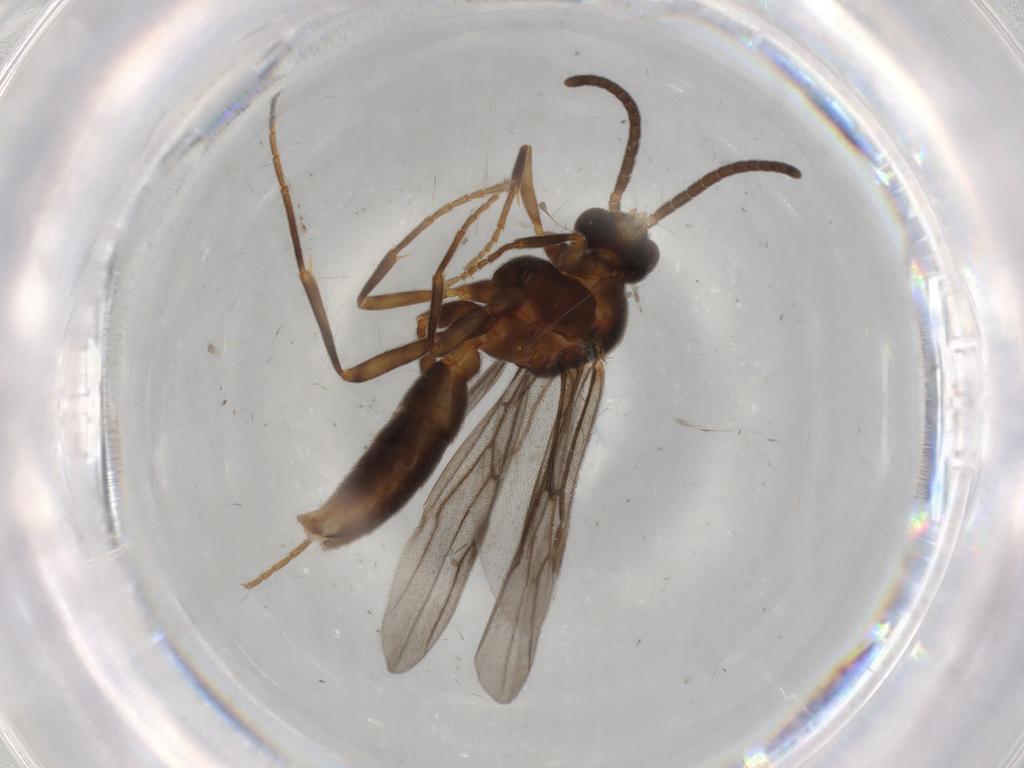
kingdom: Animalia
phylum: Arthropoda
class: Insecta
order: Hymenoptera
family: Formicidae
